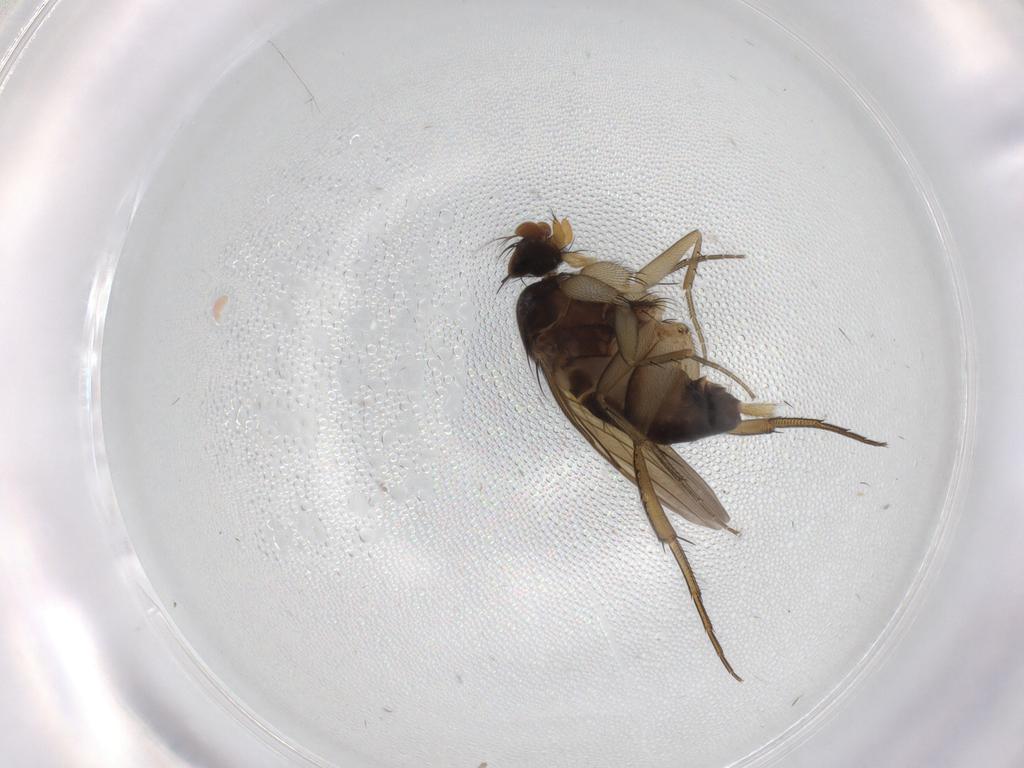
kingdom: Animalia
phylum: Arthropoda
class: Insecta
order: Diptera
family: Phoridae
